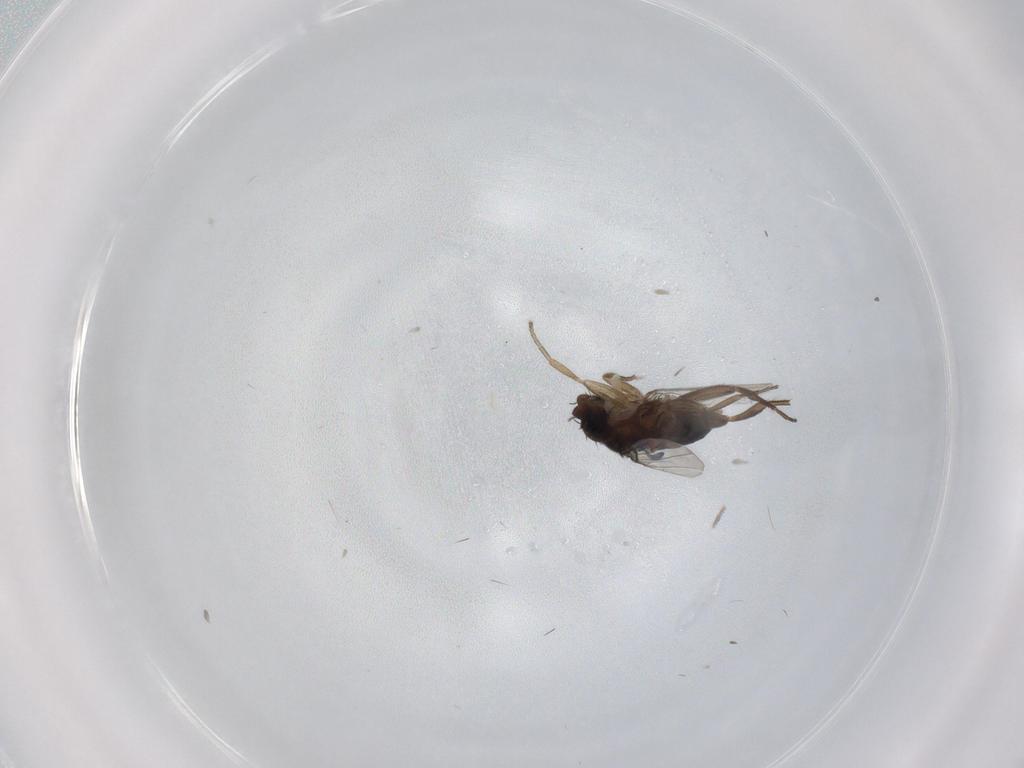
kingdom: Animalia
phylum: Arthropoda
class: Insecta
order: Diptera
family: Phoridae
